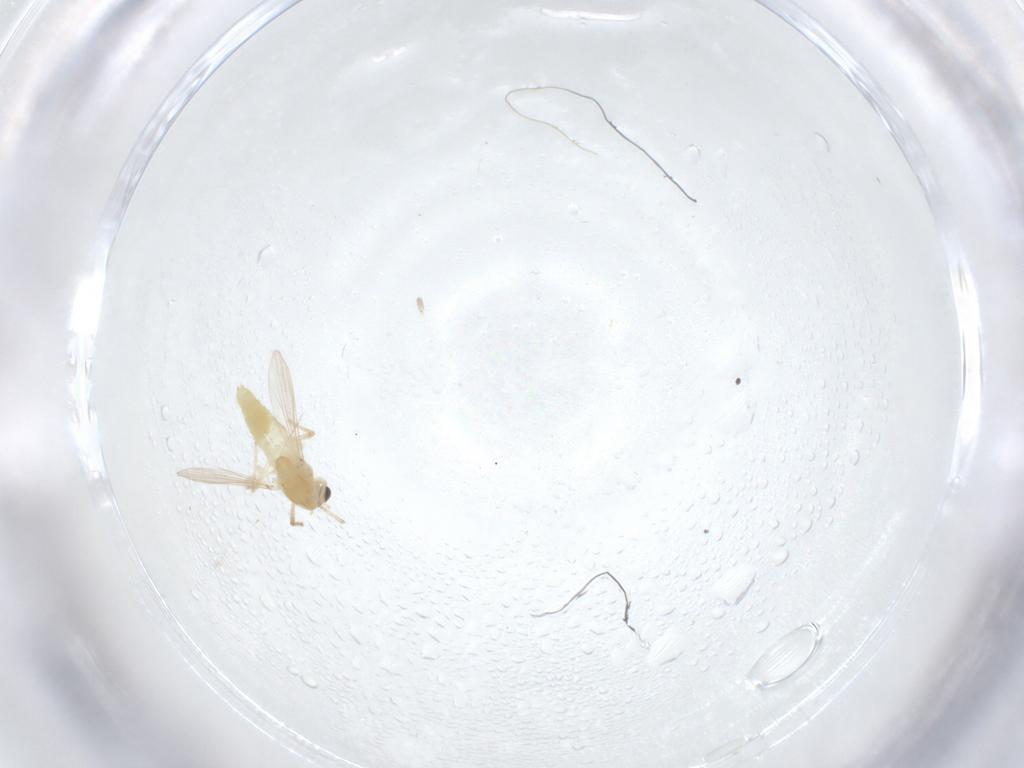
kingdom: Animalia
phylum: Arthropoda
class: Insecta
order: Diptera
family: Chironomidae
